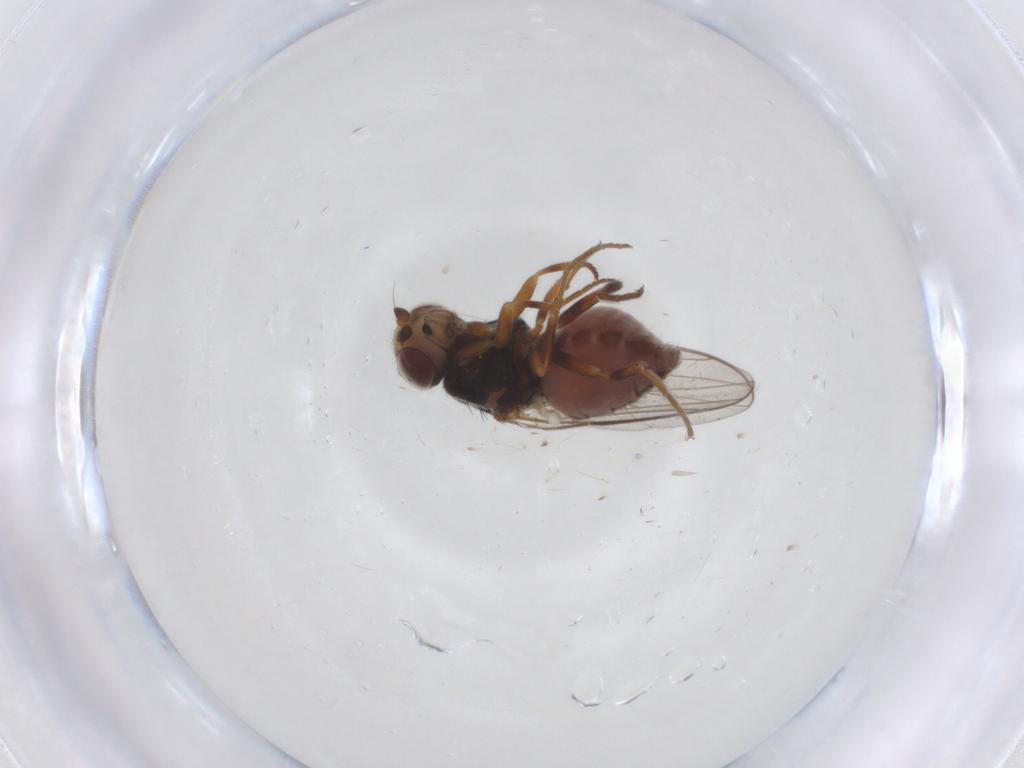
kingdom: Animalia
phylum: Arthropoda
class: Insecta
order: Diptera
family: Chloropidae
